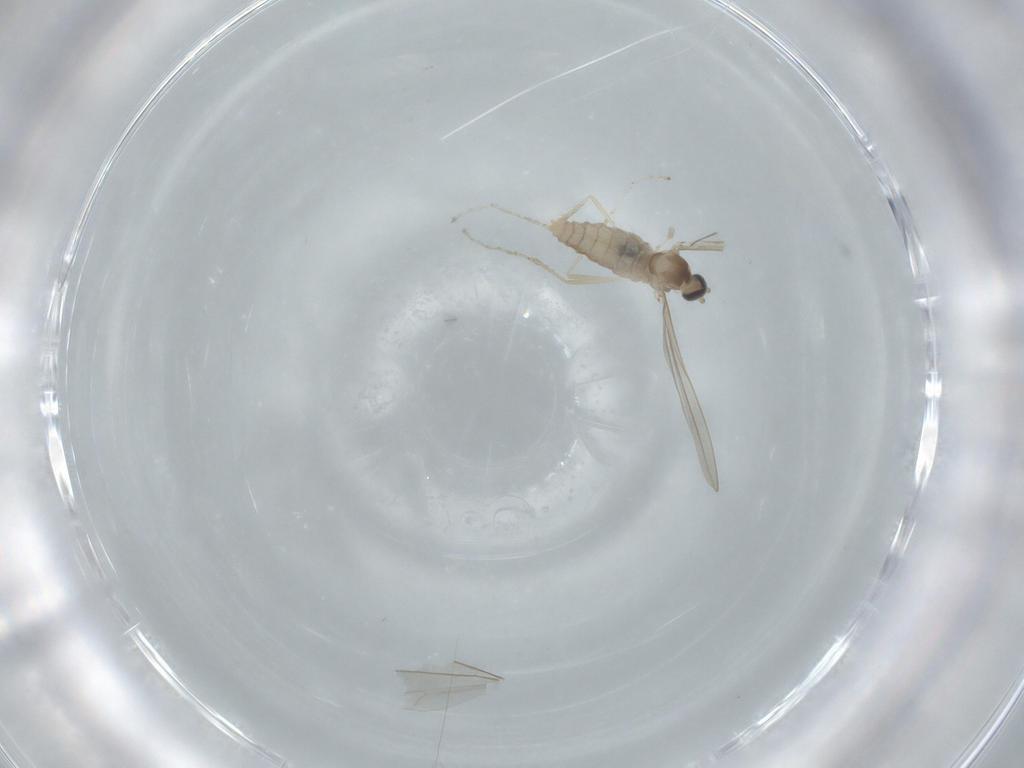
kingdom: Animalia
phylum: Arthropoda
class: Insecta
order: Diptera
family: Cecidomyiidae
